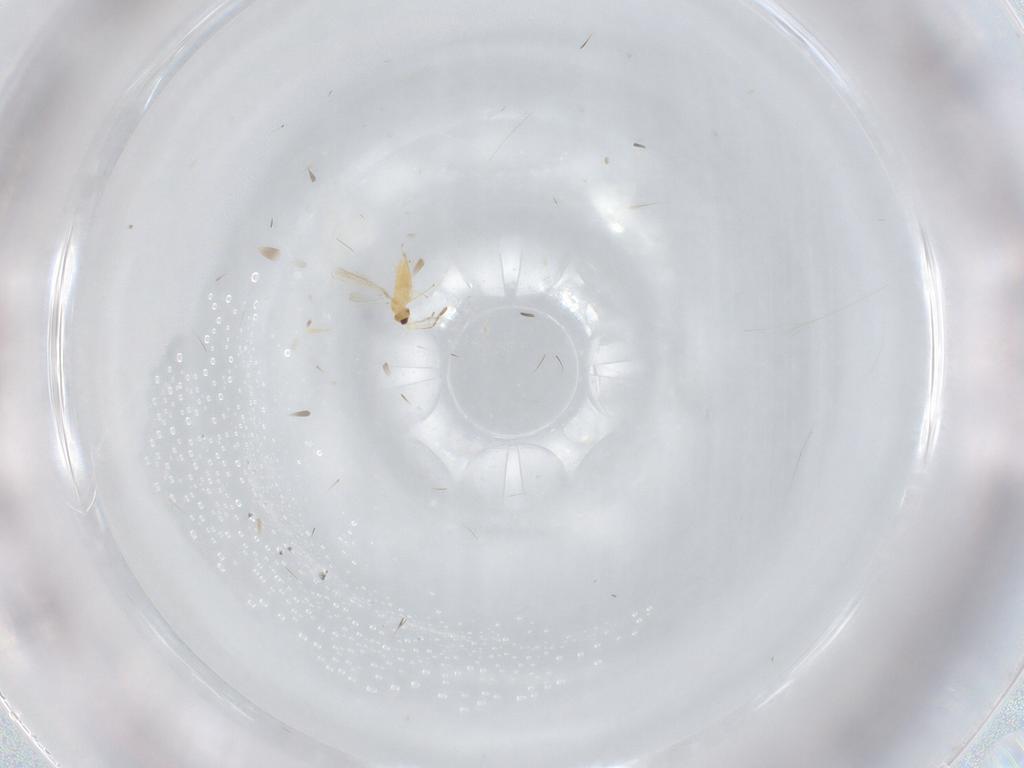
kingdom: Animalia
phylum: Arthropoda
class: Insecta
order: Hymenoptera
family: Mymaridae
